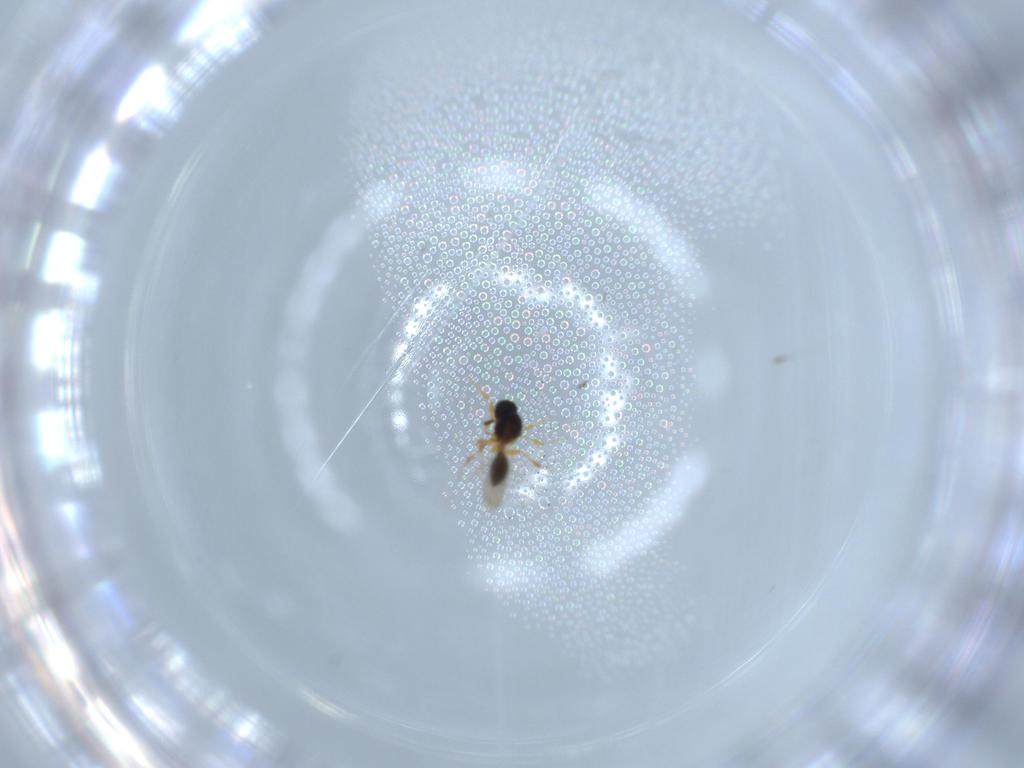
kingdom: Animalia
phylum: Arthropoda
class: Insecta
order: Hymenoptera
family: Platygastridae
